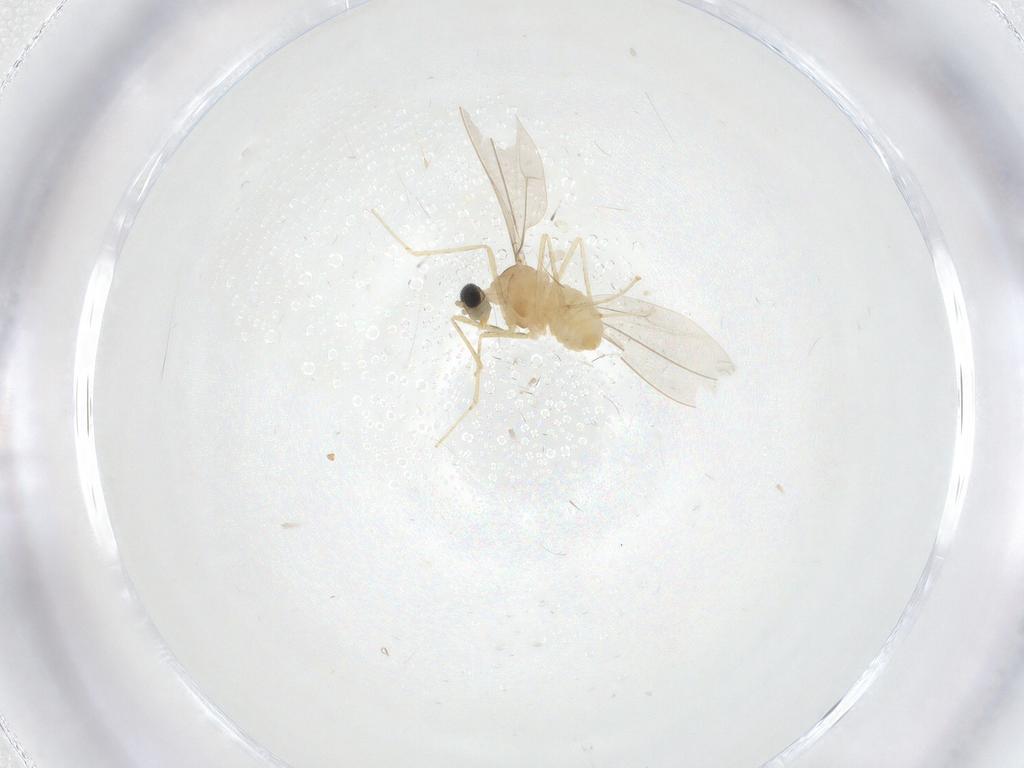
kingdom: Animalia
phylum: Arthropoda
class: Insecta
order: Diptera
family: Cecidomyiidae
